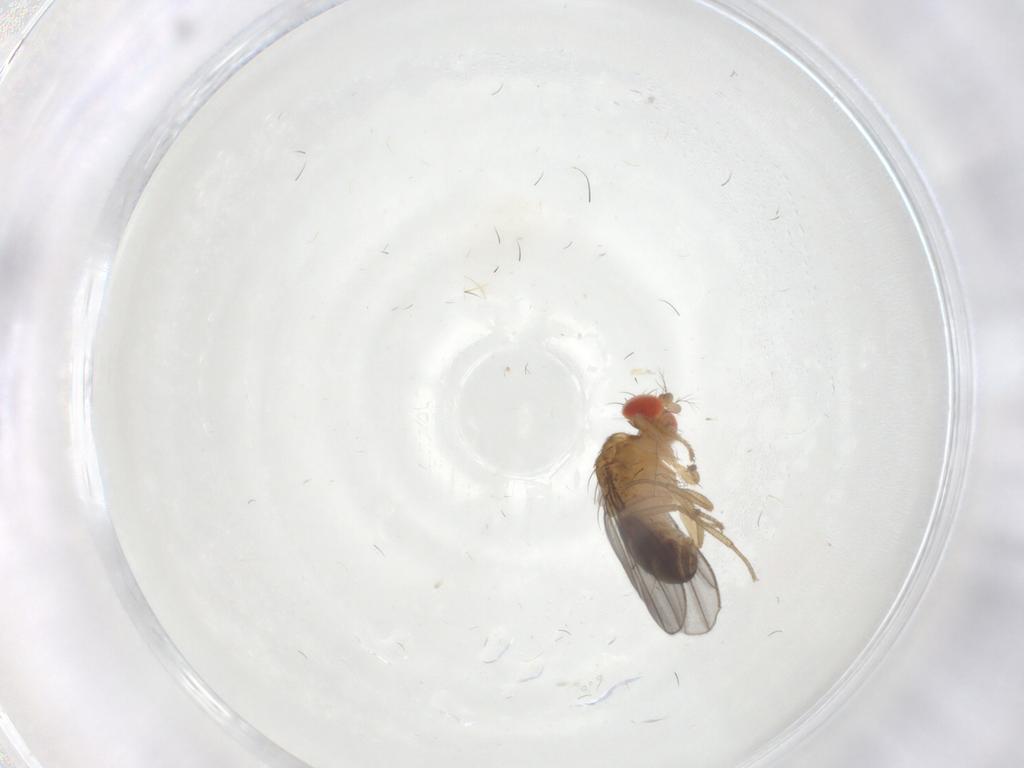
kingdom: Animalia
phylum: Arthropoda
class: Insecta
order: Diptera
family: Drosophilidae
